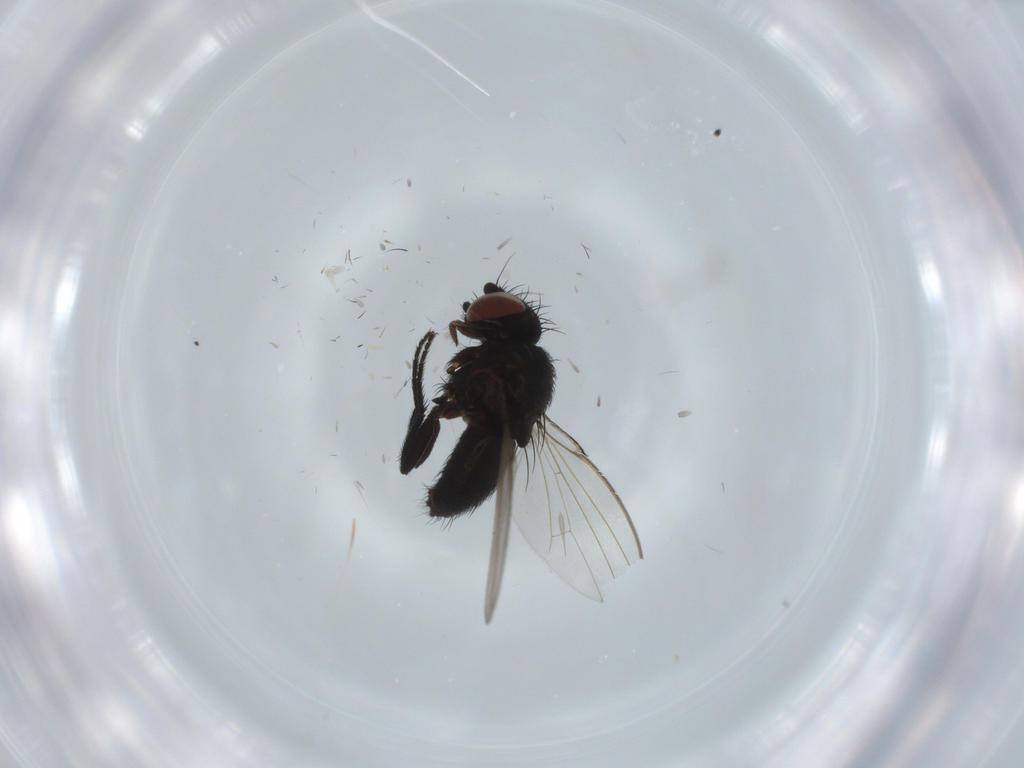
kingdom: Animalia
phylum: Arthropoda
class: Insecta
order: Diptera
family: Milichiidae
